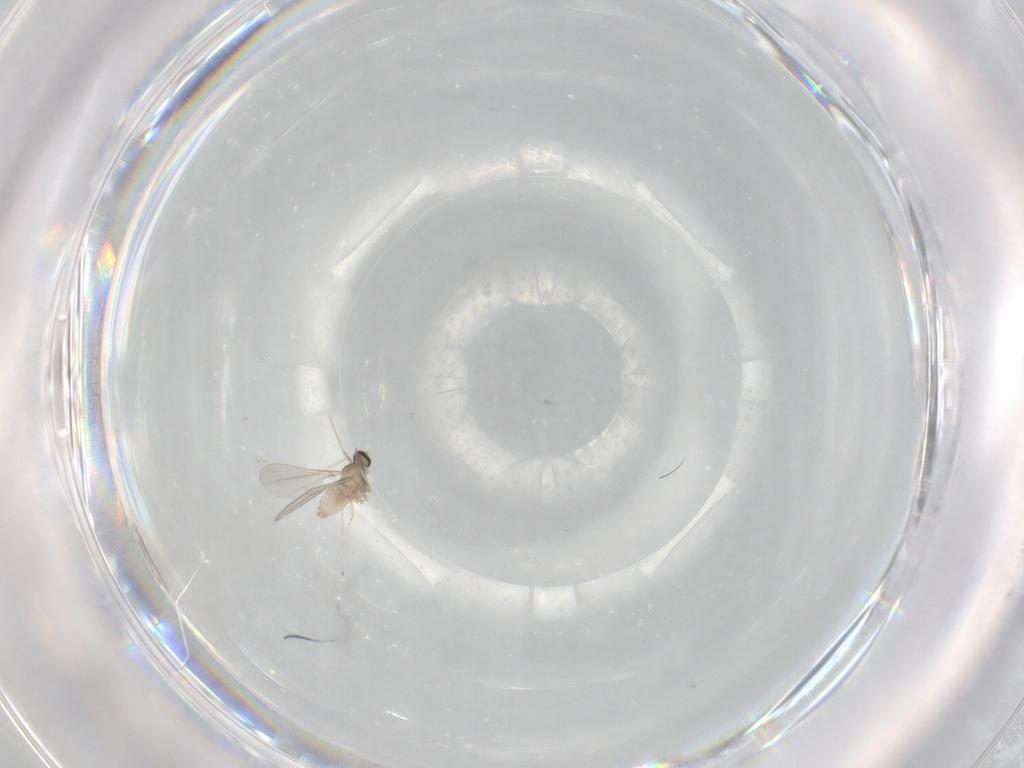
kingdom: Animalia
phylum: Arthropoda
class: Insecta
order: Diptera
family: Cecidomyiidae
